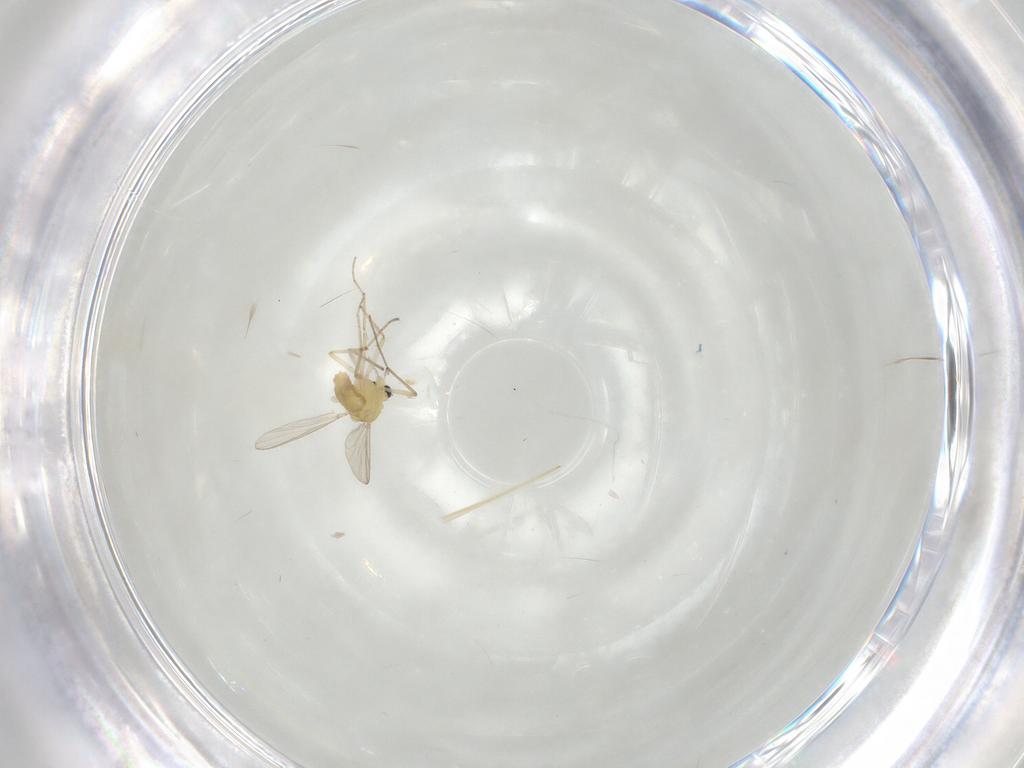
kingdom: Animalia
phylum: Arthropoda
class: Insecta
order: Diptera
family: Chironomidae
